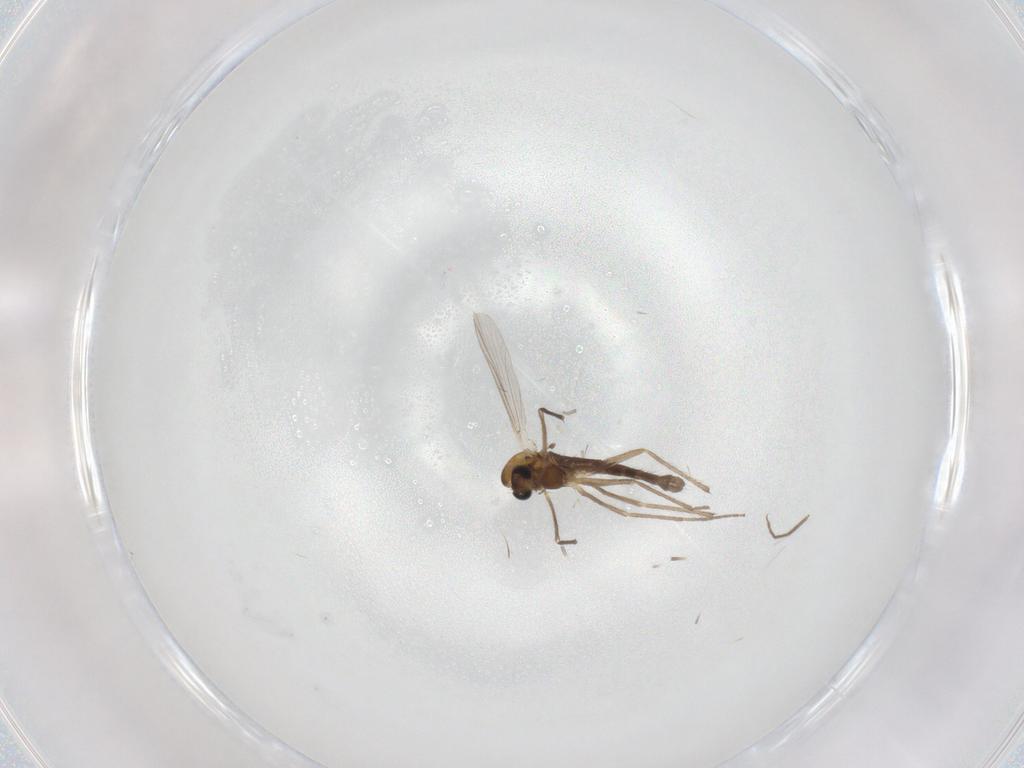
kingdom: Animalia
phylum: Arthropoda
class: Insecta
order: Diptera
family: Chironomidae
